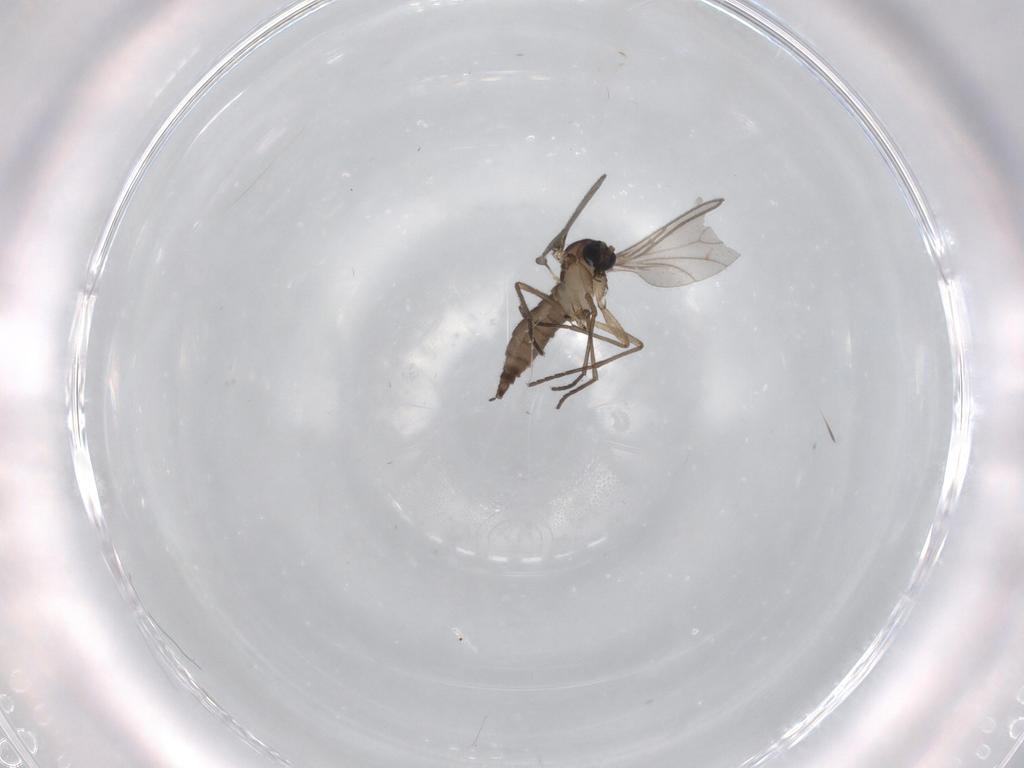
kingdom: Animalia
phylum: Arthropoda
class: Insecta
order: Diptera
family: Sciaridae
